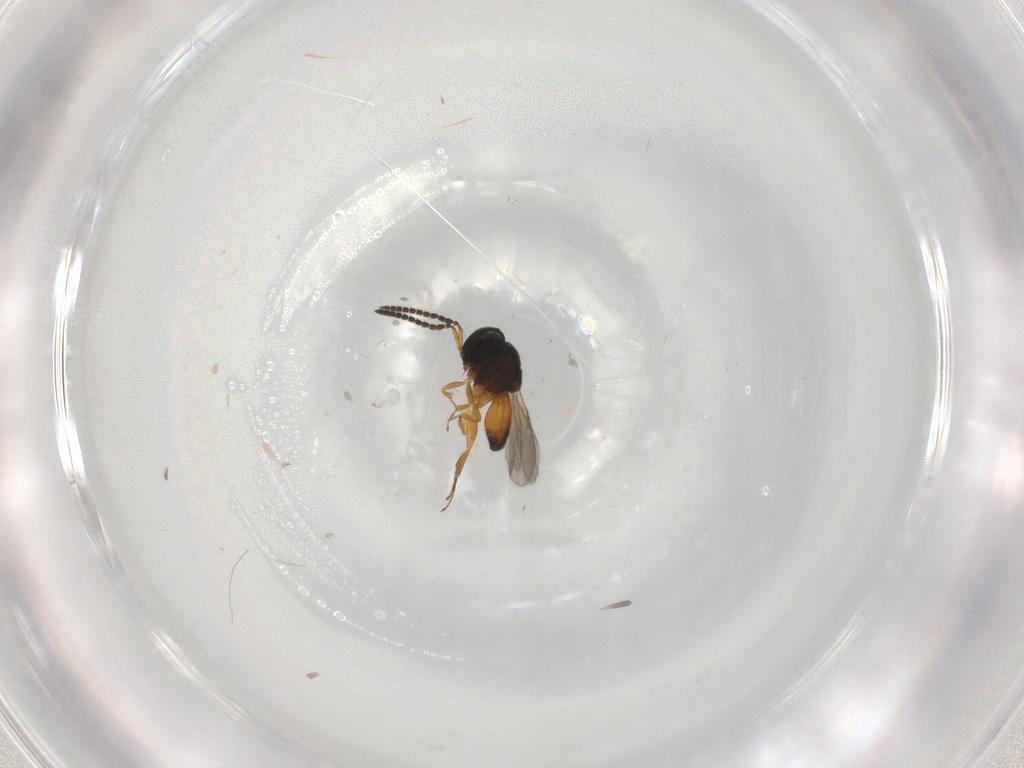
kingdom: Animalia
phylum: Arthropoda
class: Insecta
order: Hymenoptera
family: Scelionidae
